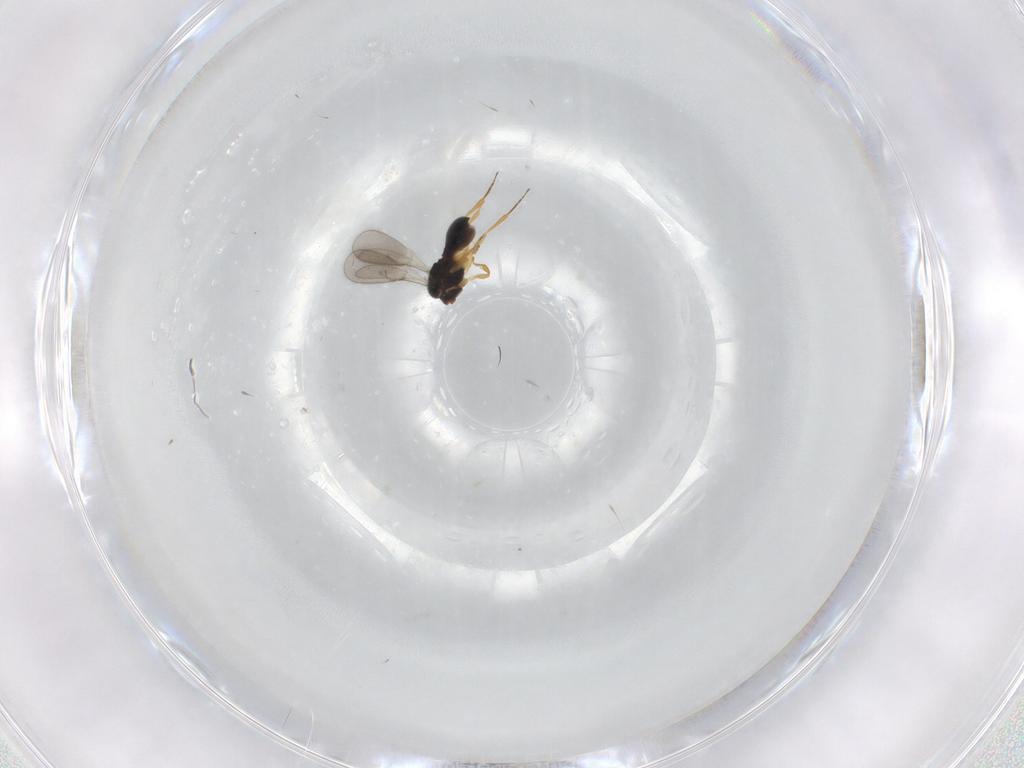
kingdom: Animalia
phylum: Arthropoda
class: Insecta
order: Hymenoptera
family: Scelionidae
